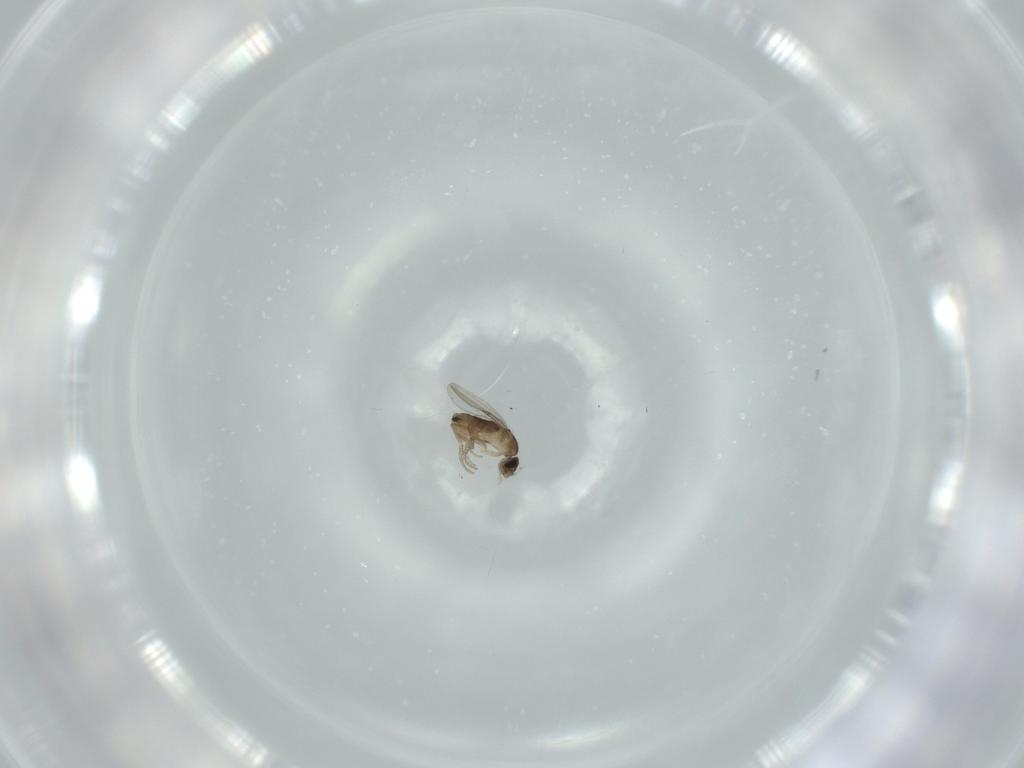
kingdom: Animalia
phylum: Arthropoda
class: Insecta
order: Diptera
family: Phoridae
